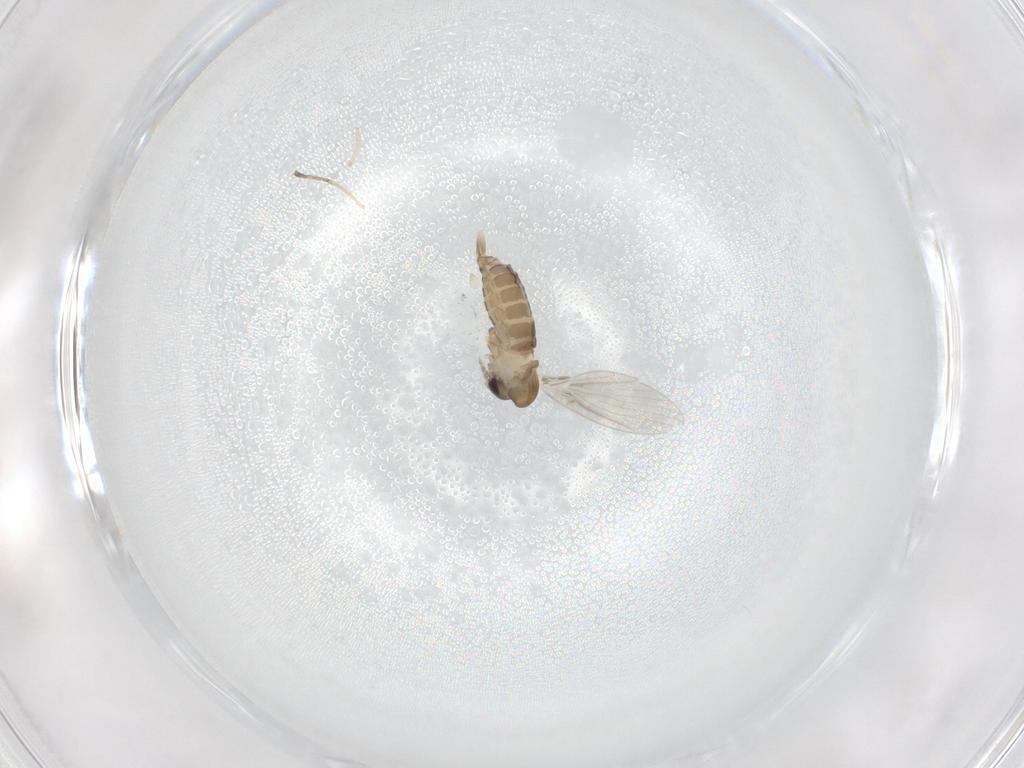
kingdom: Animalia
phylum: Arthropoda
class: Insecta
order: Diptera
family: Psychodidae
